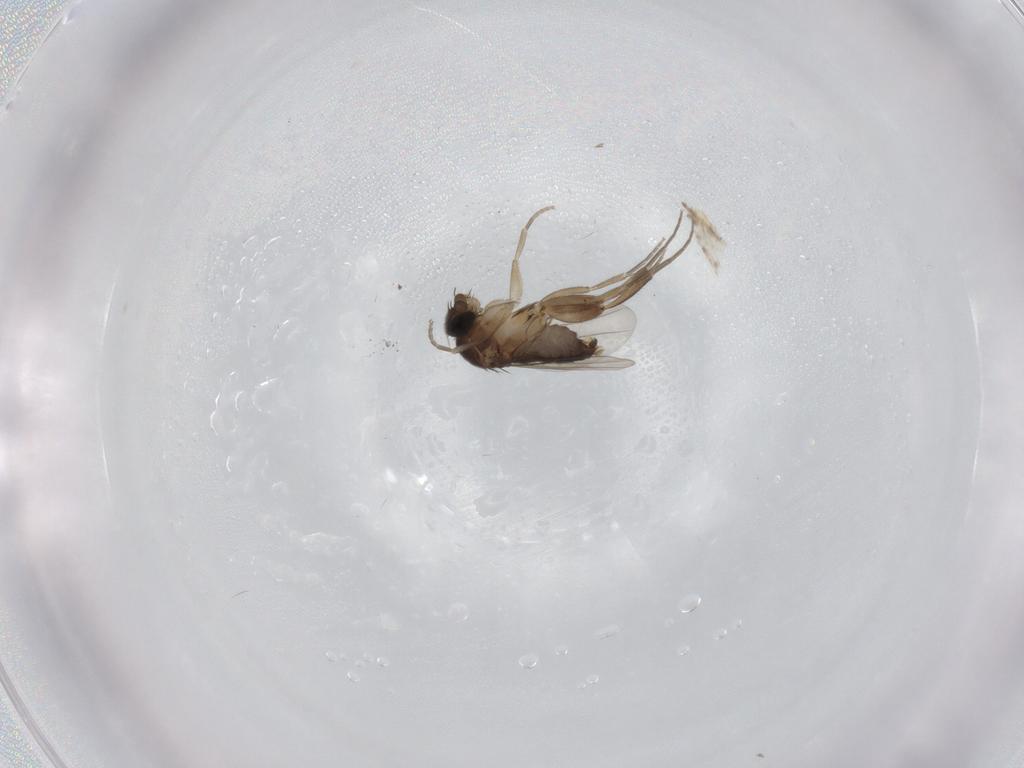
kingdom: Animalia
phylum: Arthropoda
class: Insecta
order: Diptera
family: Phoridae
